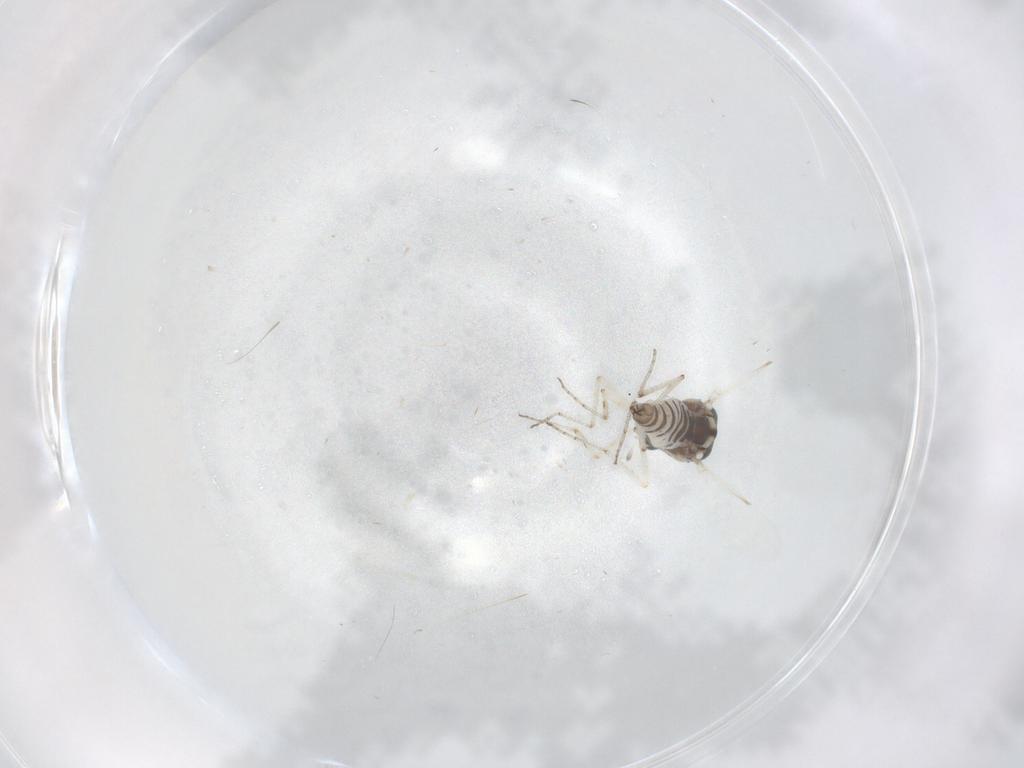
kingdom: Animalia
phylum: Arthropoda
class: Insecta
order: Diptera
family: Ceratopogonidae
